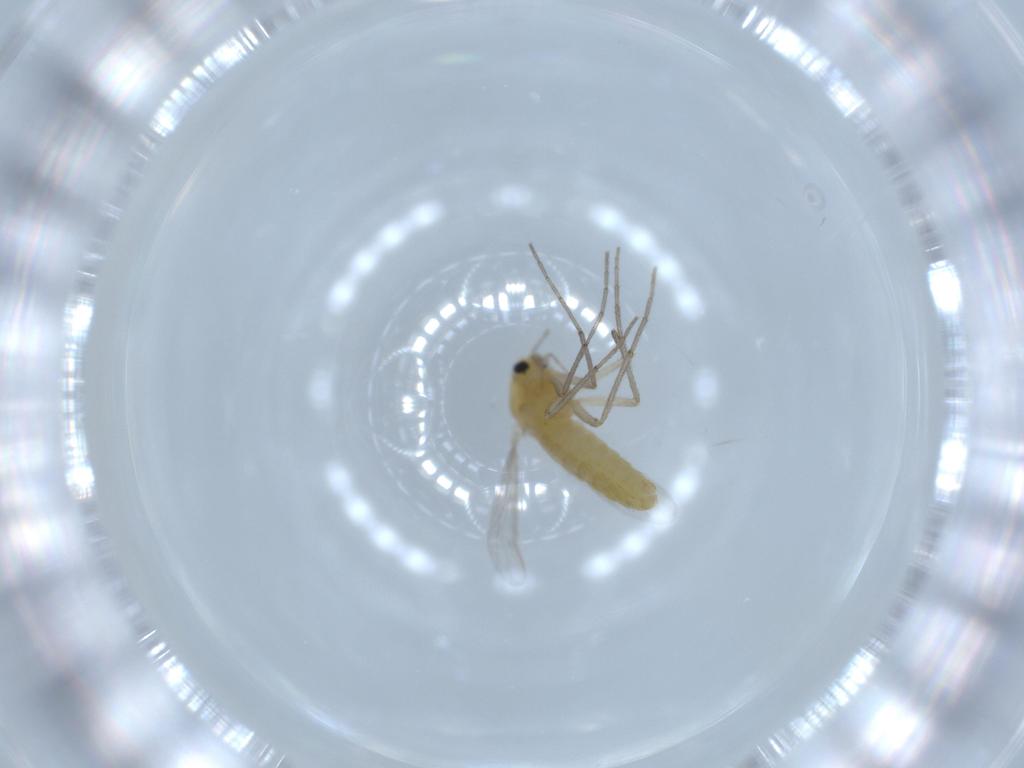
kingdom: Animalia
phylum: Arthropoda
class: Insecta
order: Diptera
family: Chironomidae
